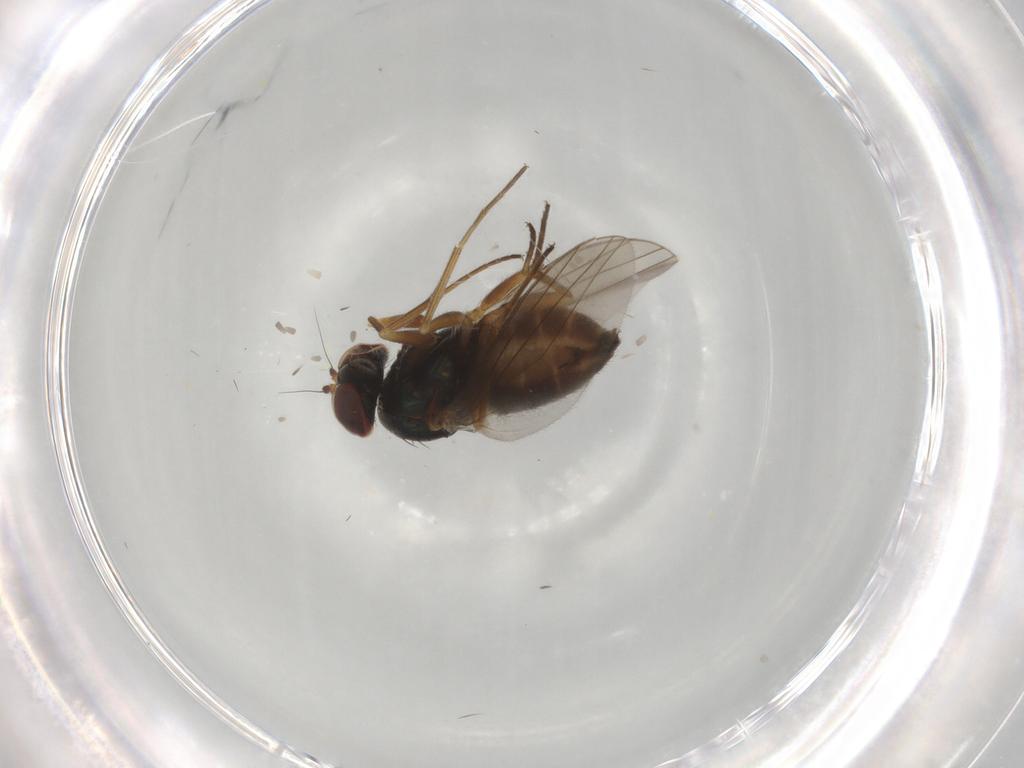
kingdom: Animalia
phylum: Arthropoda
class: Insecta
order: Diptera
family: Dolichopodidae
